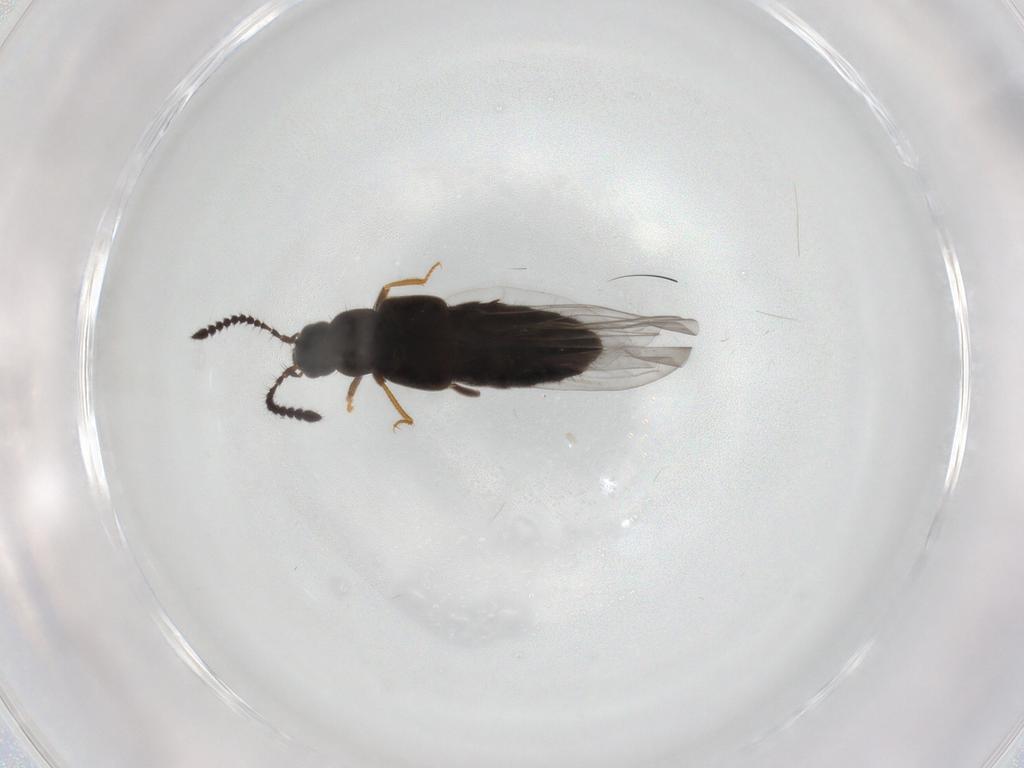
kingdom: Animalia
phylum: Arthropoda
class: Insecta
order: Coleoptera
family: Staphylinidae
